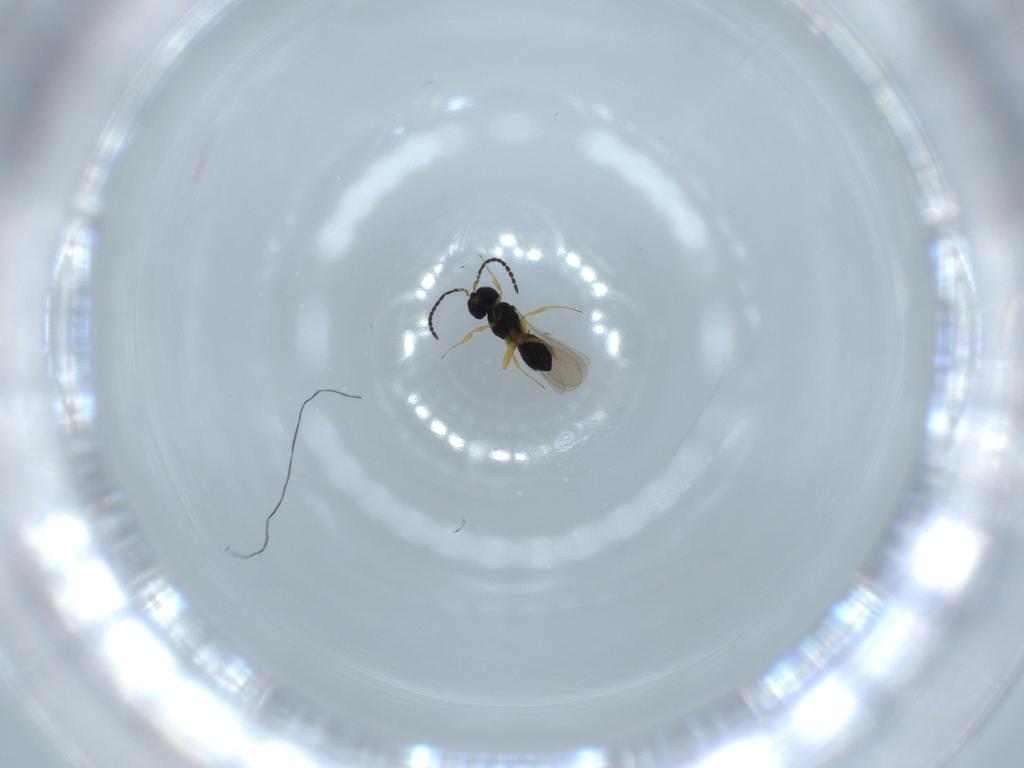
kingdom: Animalia
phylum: Arthropoda
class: Insecta
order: Hymenoptera
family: Scelionidae
